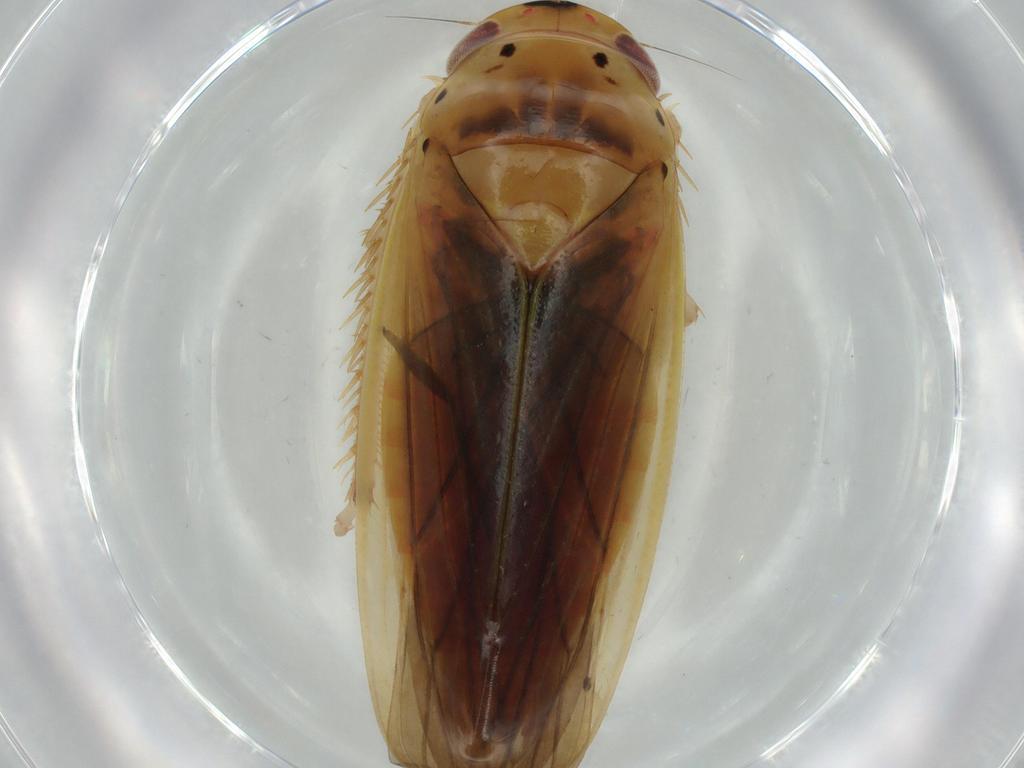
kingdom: Animalia
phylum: Arthropoda
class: Insecta
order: Hemiptera
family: Cicadellidae
